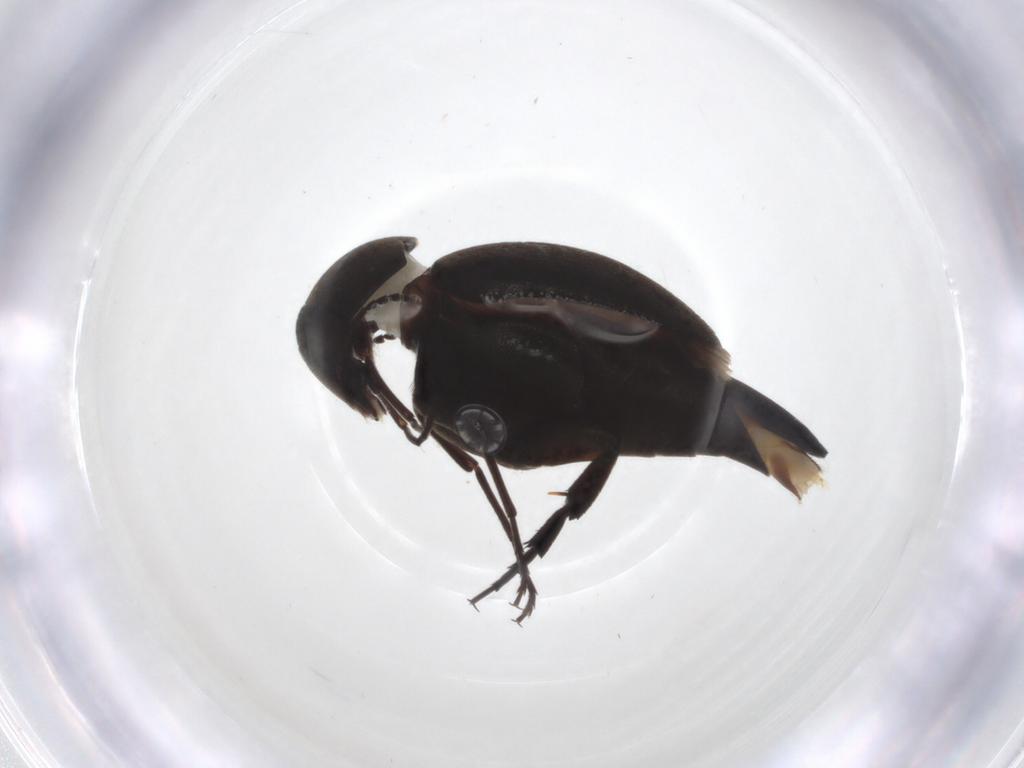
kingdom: Animalia
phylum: Arthropoda
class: Insecta
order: Coleoptera
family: Mordellidae
